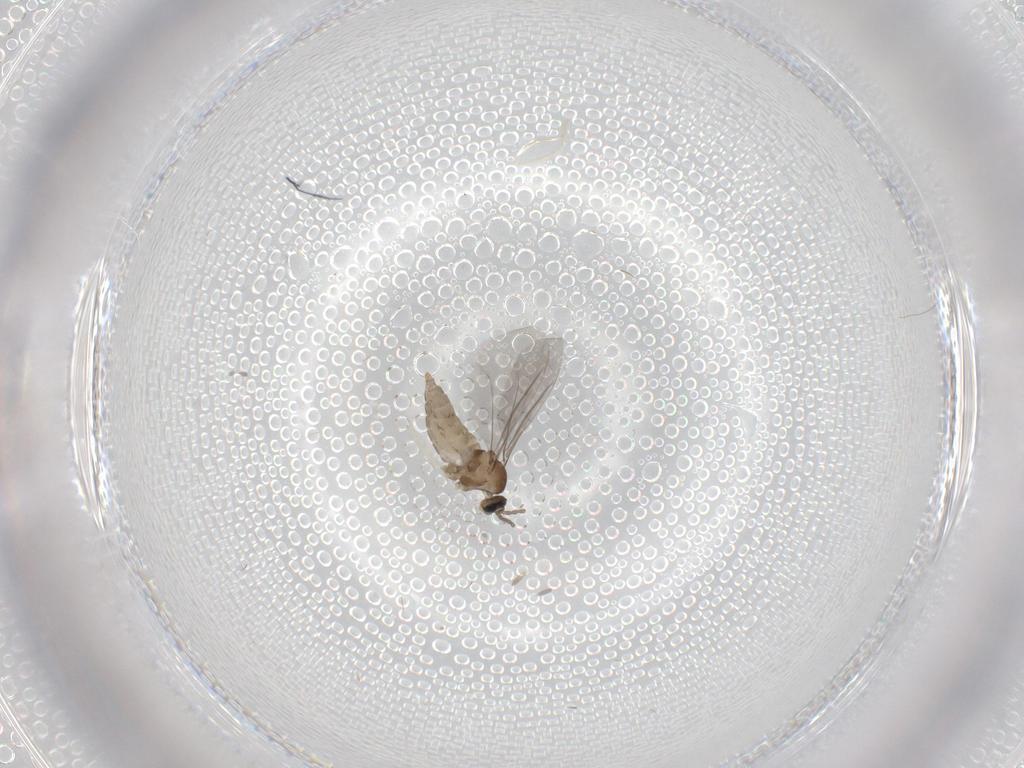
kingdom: Animalia
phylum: Arthropoda
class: Insecta
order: Diptera
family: Cecidomyiidae
